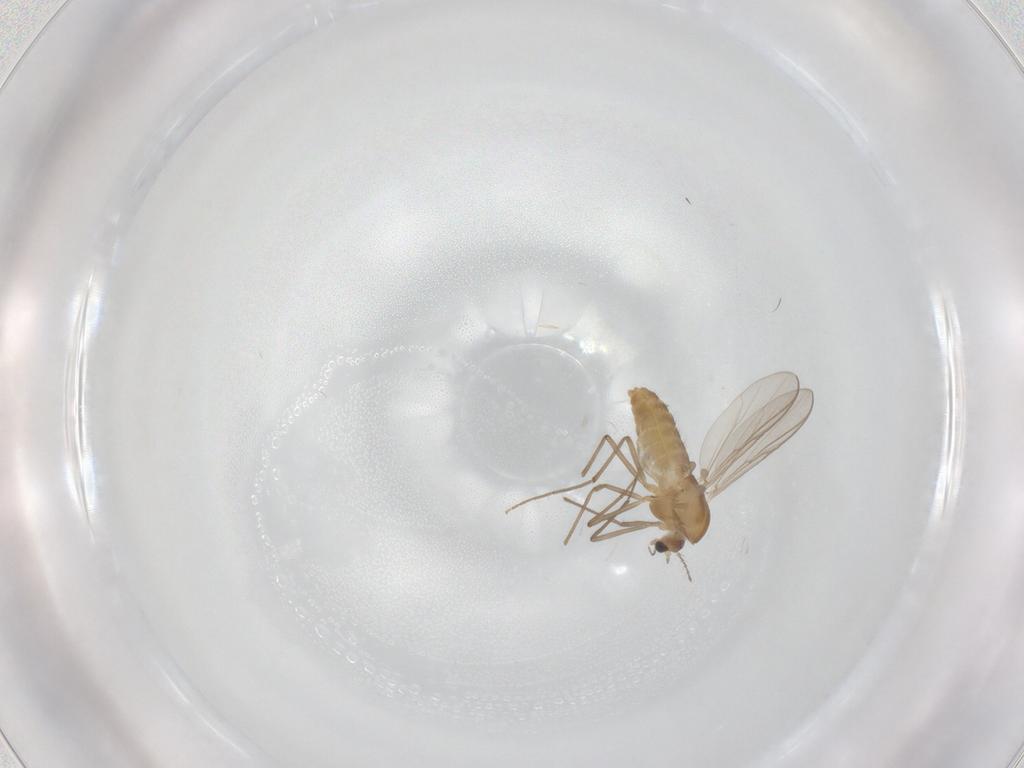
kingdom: Animalia
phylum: Arthropoda
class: Insecta
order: Diptera
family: Chironomidae
